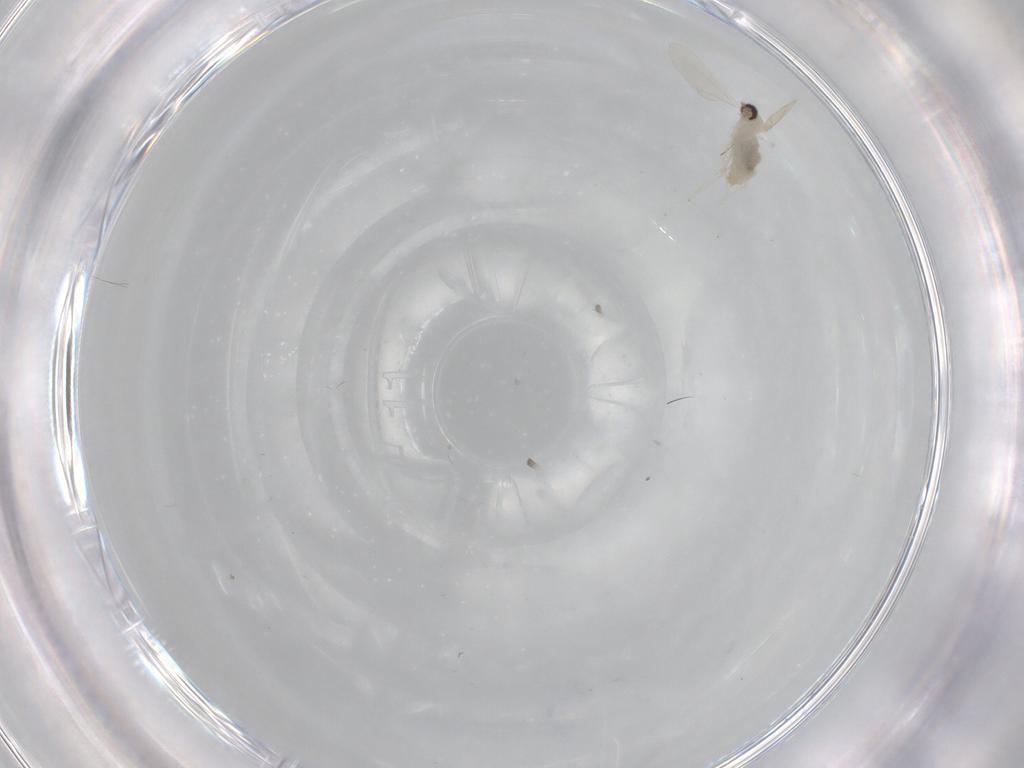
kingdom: Animalia
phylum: Arthropoda
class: Insecta
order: Diptera
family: Cecidomyiidae
